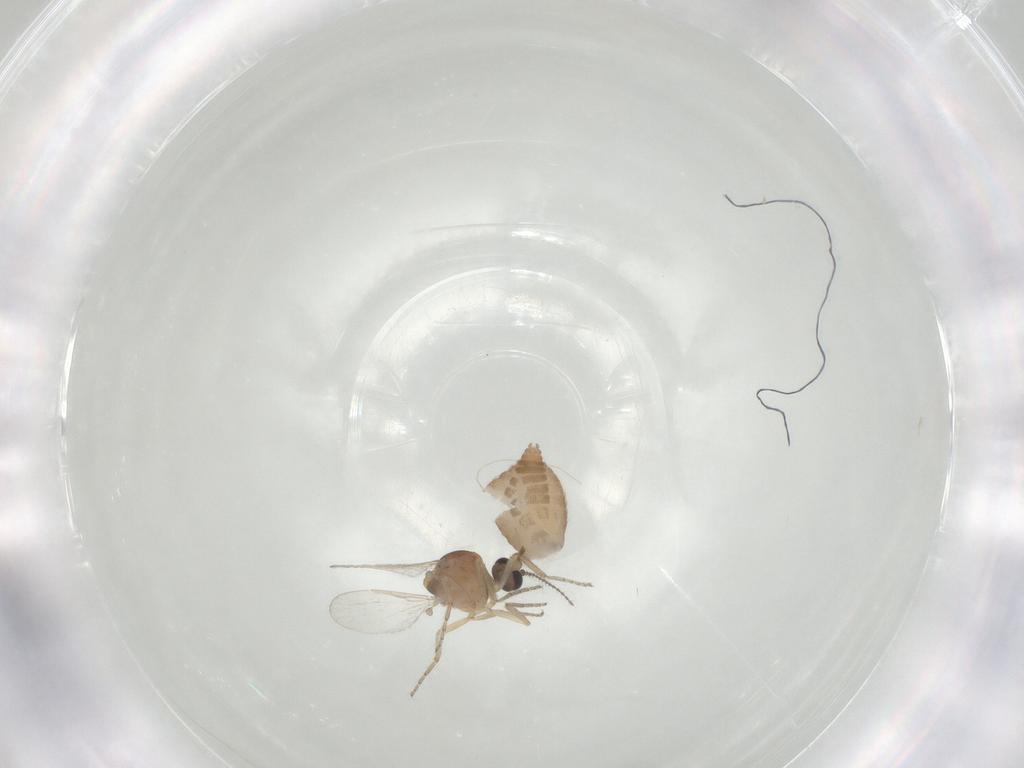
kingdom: Animalia
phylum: Arthropoda
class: Insecta
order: Diptera
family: Ceratopogonidae
